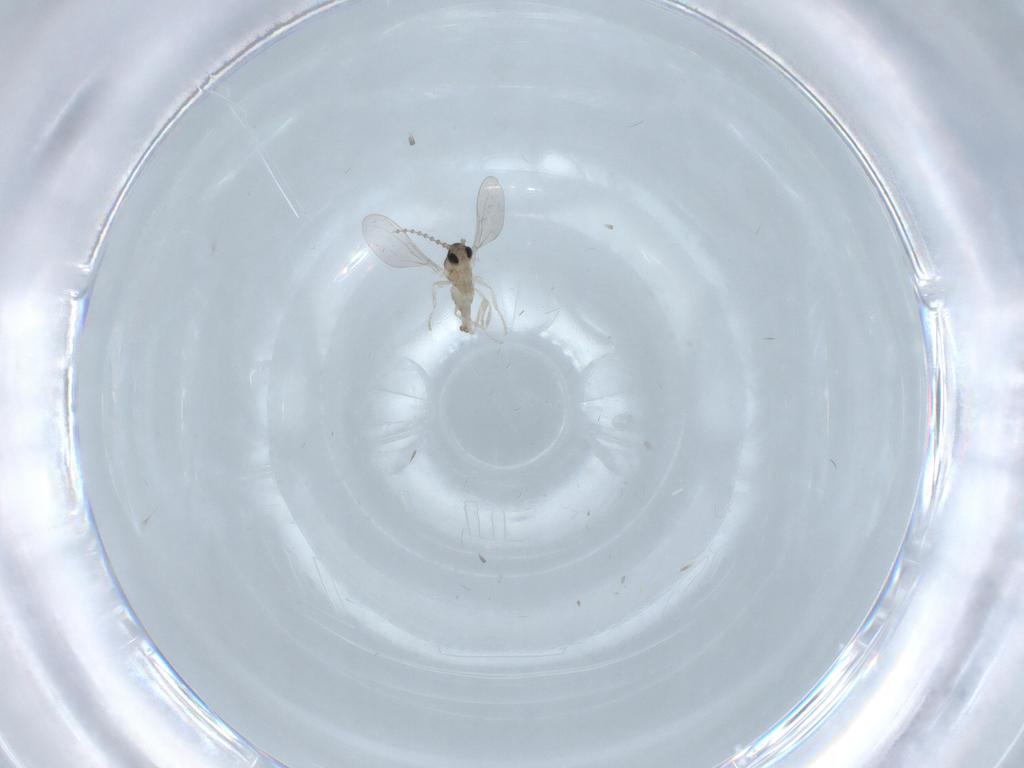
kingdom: Animalia
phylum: Arthropoda
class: Insecta
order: Diptera
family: Cecidomyiidae
